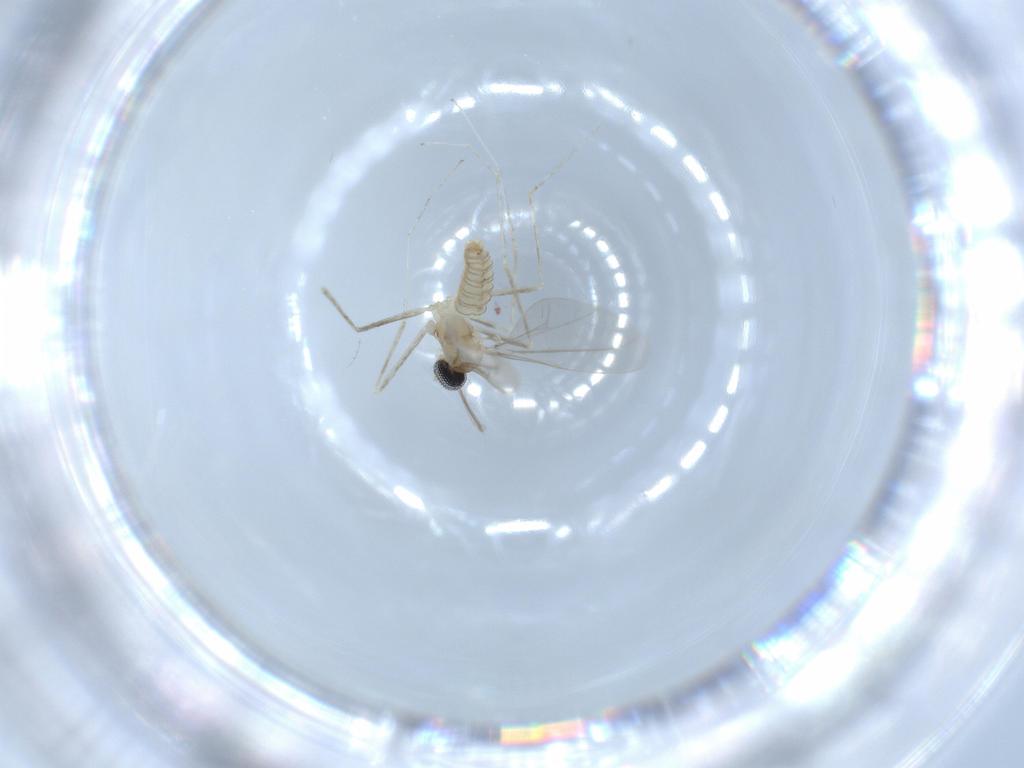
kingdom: Animalia
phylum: Arthropoda
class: Insecta
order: Diptera
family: Cecidomyiidae
